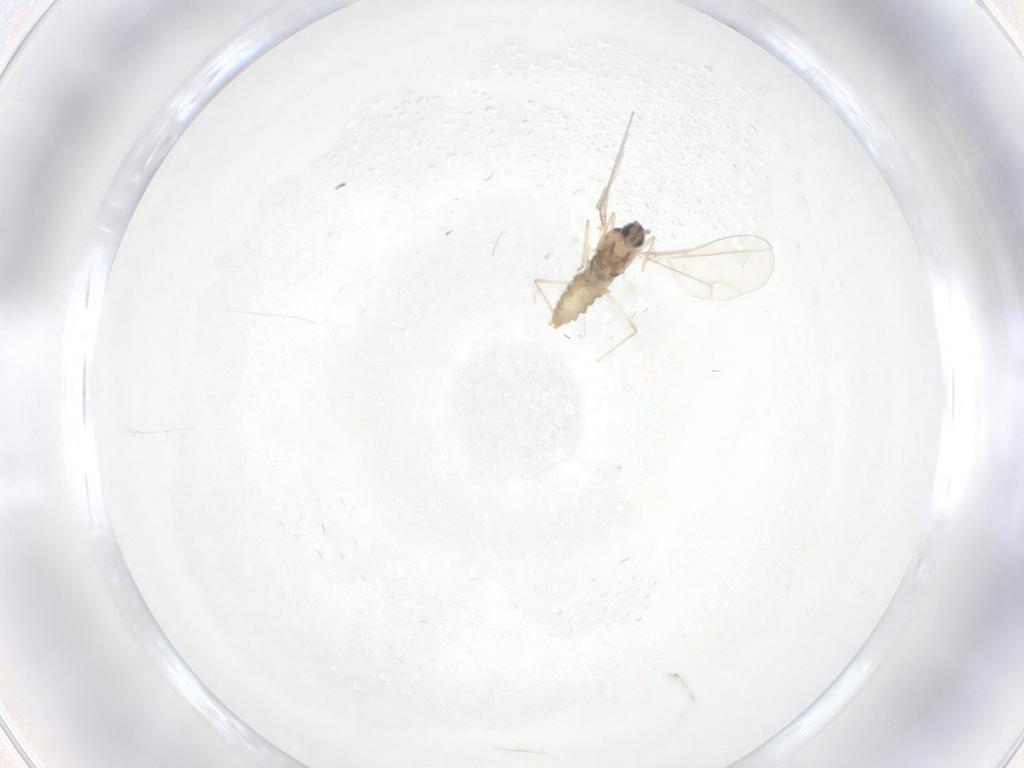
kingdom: Animalia
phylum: Arthropoda
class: Insecta
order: Diptera
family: Cecidomyiidae
